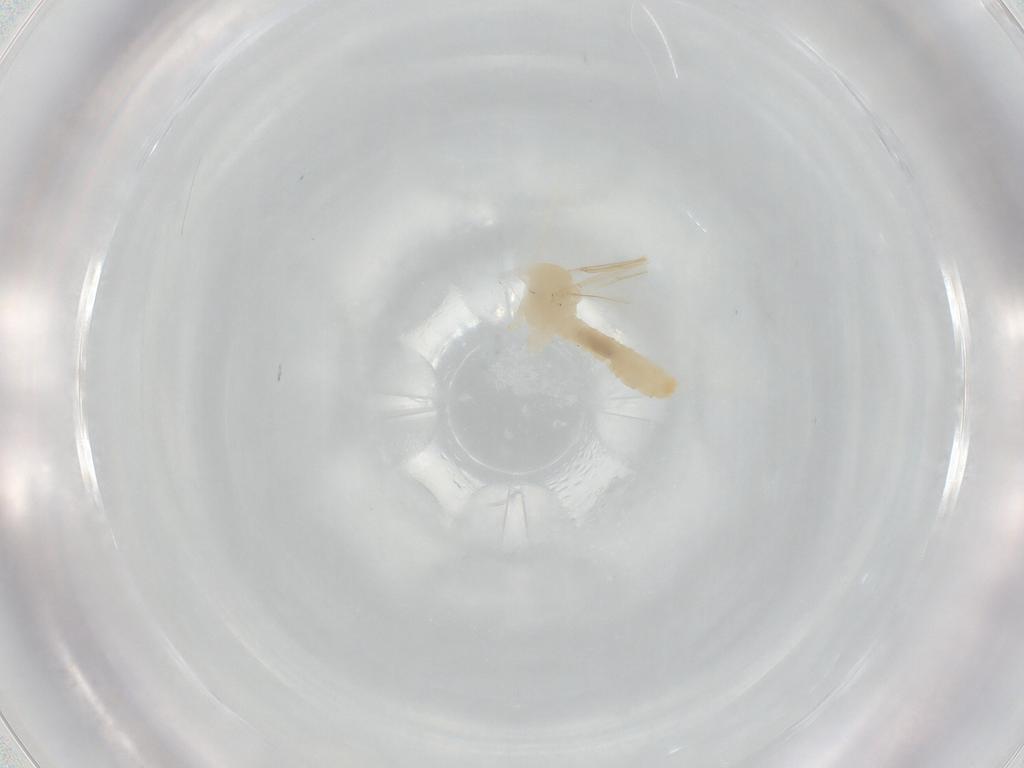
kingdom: Animalia
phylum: Arthropoda
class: Insecta
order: Diptera
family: Cecidomyiidae
